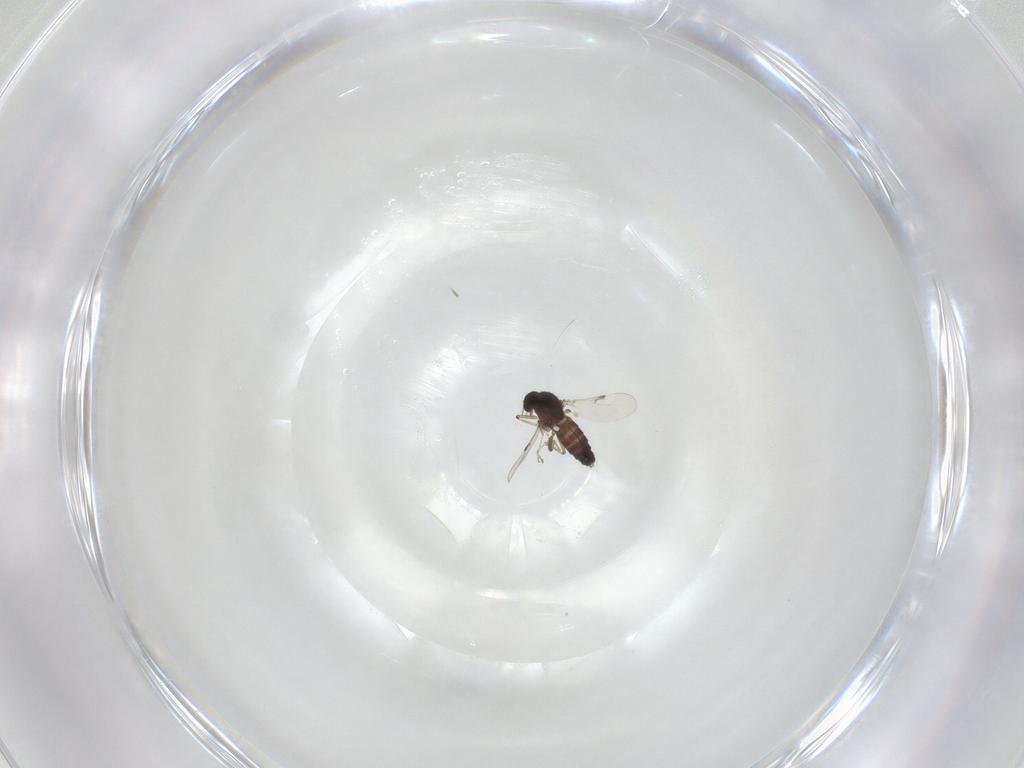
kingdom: Animalia
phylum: Arthropoda
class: Insecta
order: Diptera
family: Ceratopogonidae
